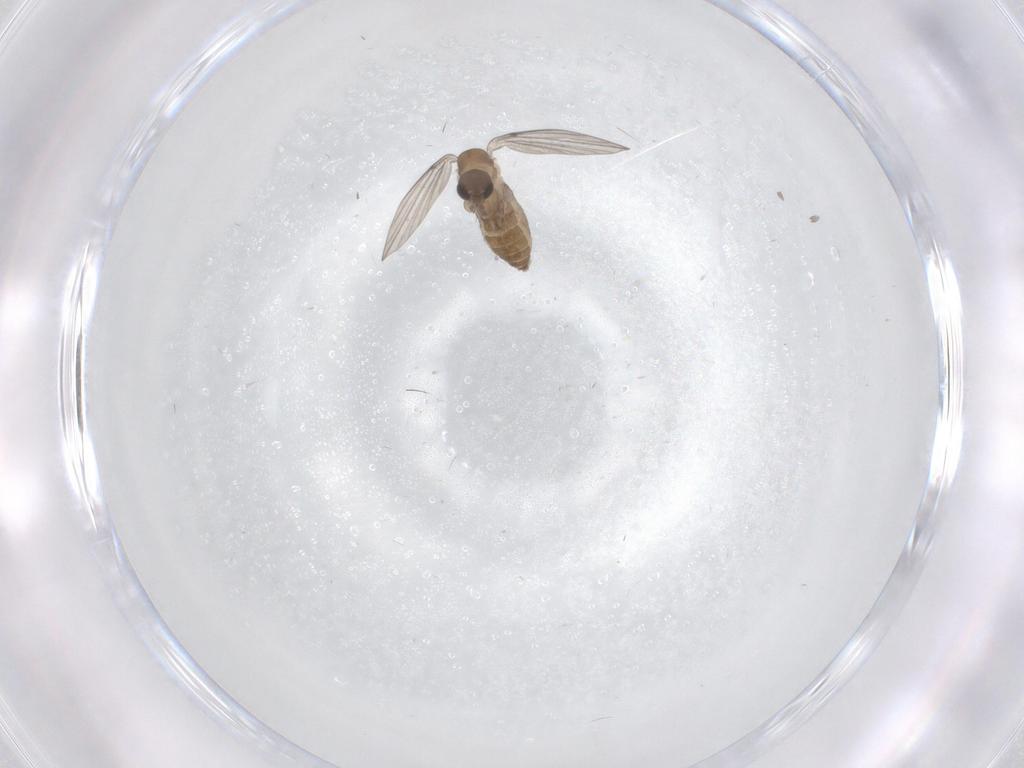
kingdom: Animalia
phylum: Arthropoda
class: Insecta
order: Diptera
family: Psychodidae
